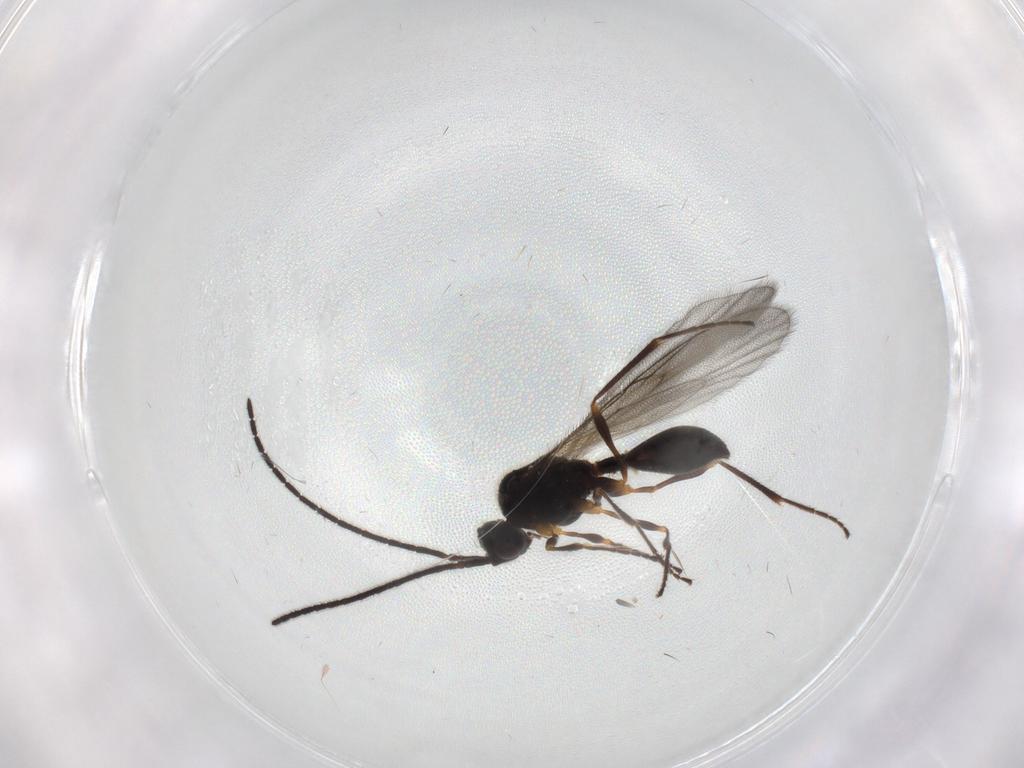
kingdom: Animalia
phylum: Arthropoda
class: Insecta
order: Hymenoptera
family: Diapriidae
